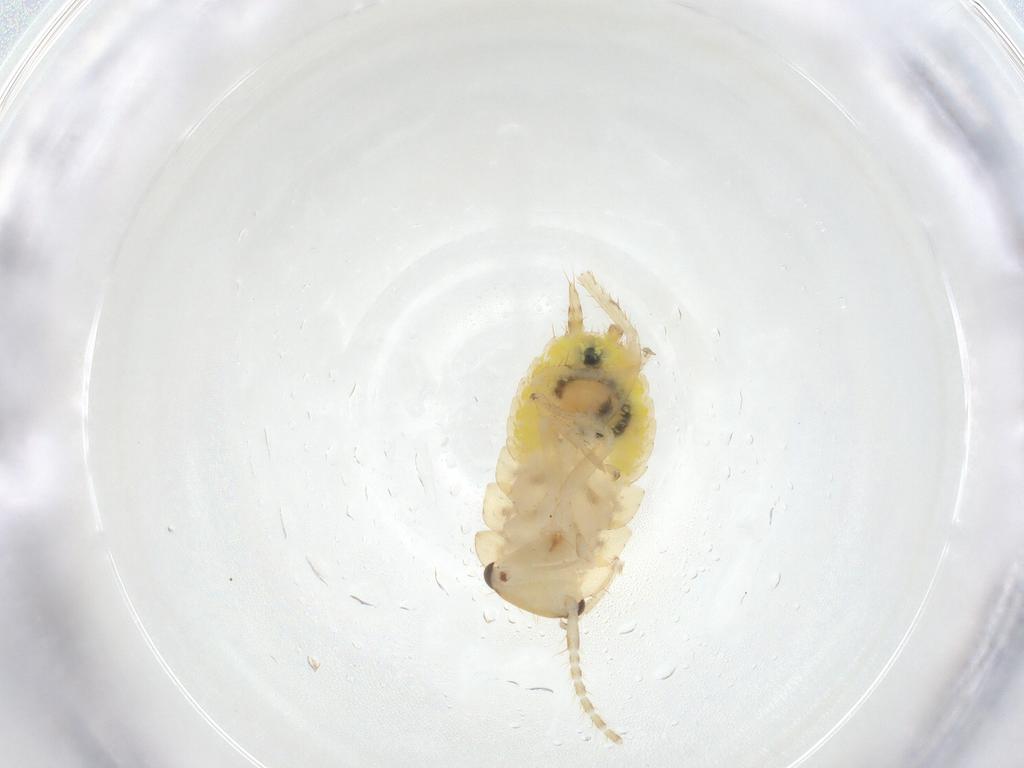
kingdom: Animalia
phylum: Arthropoda
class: Insecta
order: Blattodea
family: Ectobiidae
